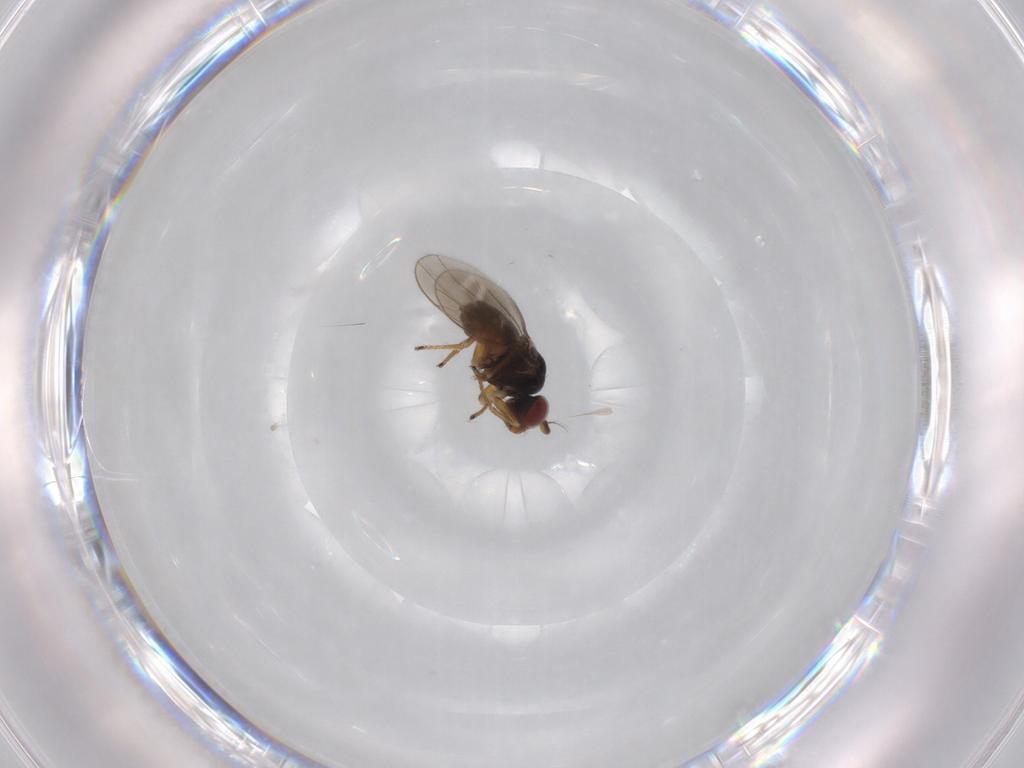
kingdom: Animalia
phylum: Arthropoda
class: Insecta
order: Diptera
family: Ephydridae
